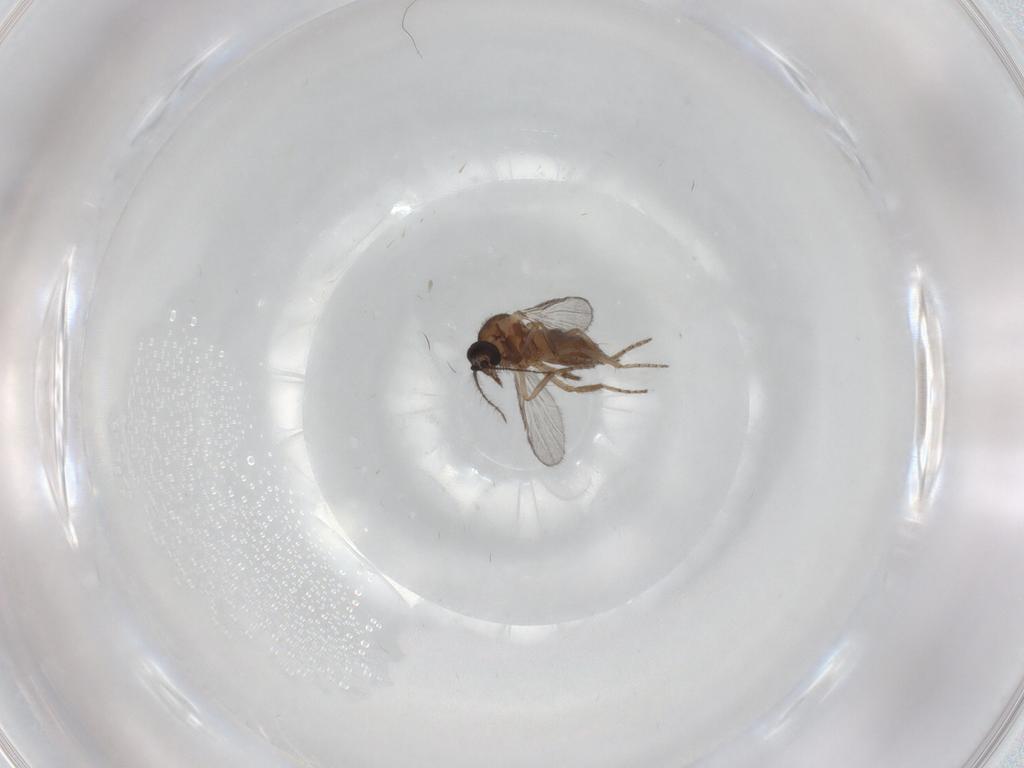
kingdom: Animalia
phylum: Arthropoda
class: Insecta
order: Diptera
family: Ceratopogonidae
